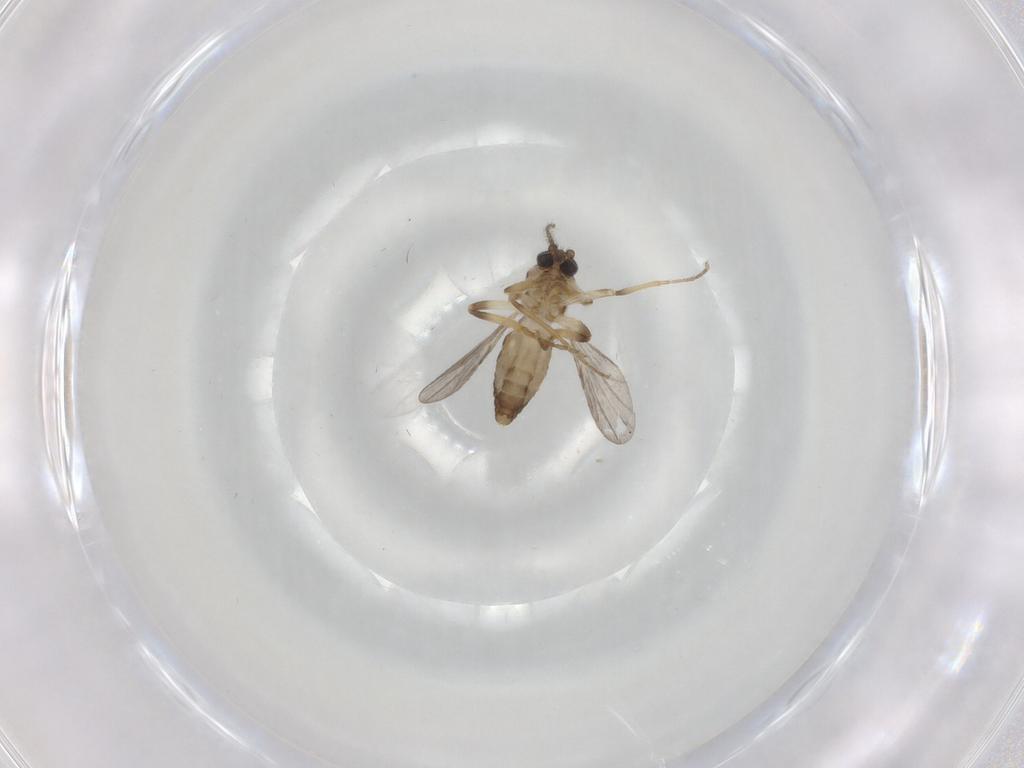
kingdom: Animalia
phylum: Arthropoda
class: Insecta
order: Diptera
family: Ceratopogonidae
